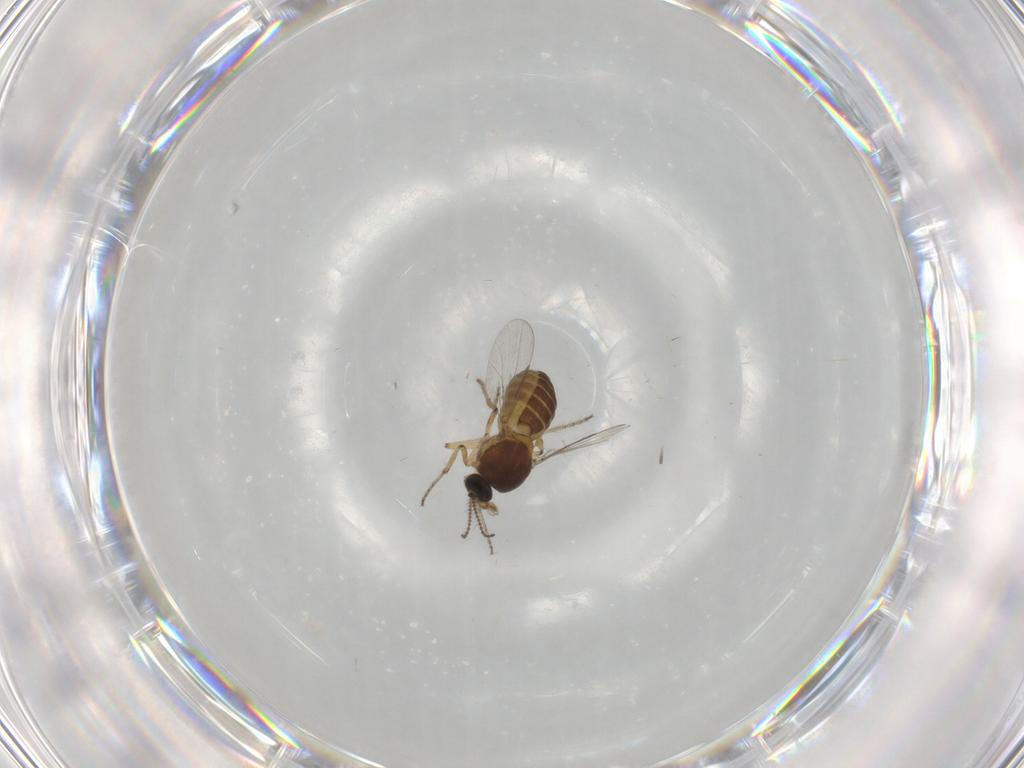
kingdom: Animalia
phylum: Arthropoda
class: Insecta
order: Diptera
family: Ceratopogonidae
